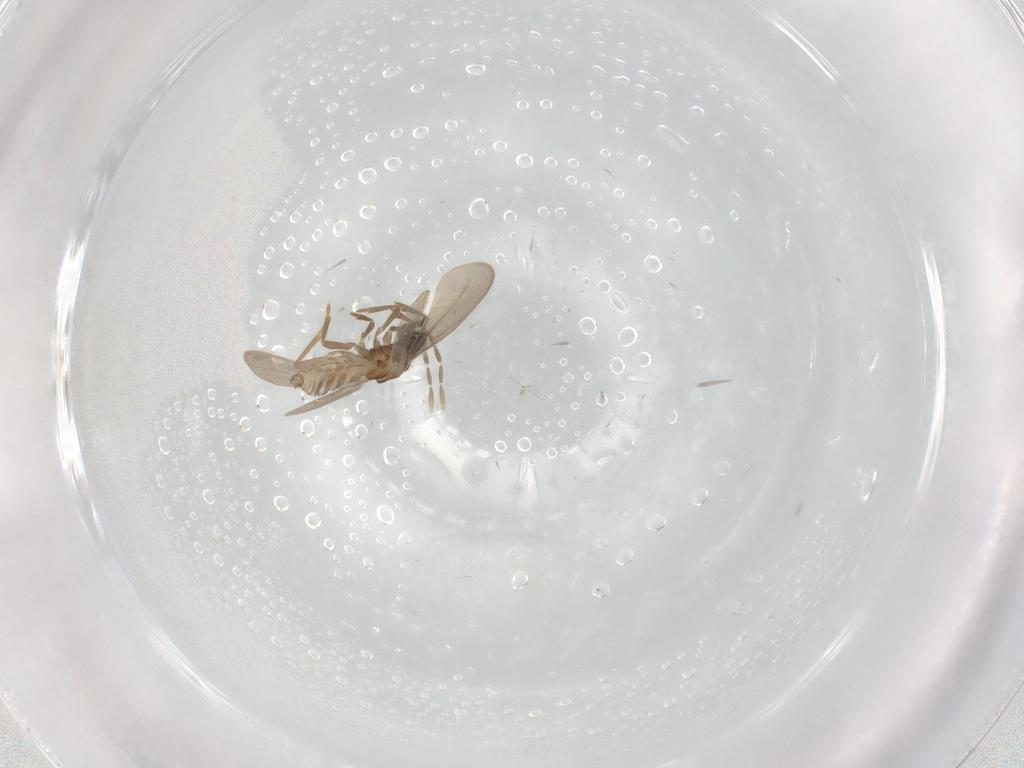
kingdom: Animalia
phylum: Arthropoda
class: Insecta
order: Hemiptera
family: Enicocephalidae
